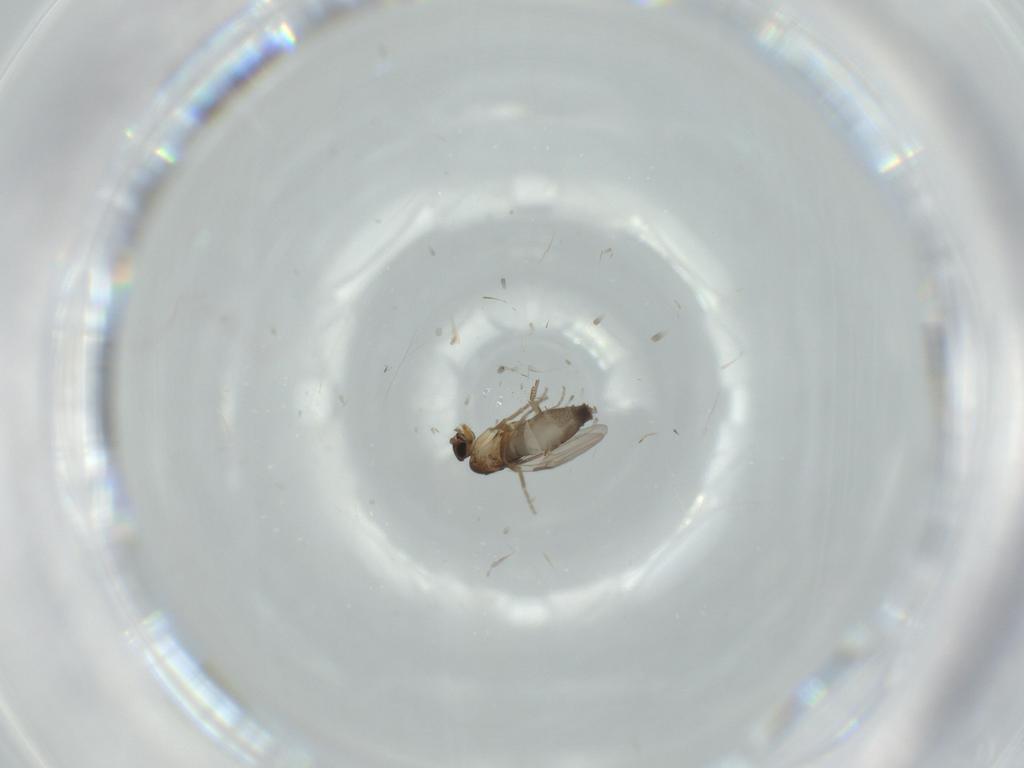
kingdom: Animalia
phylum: Arthropoda
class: Insecta
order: Diptera
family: Phoridae
